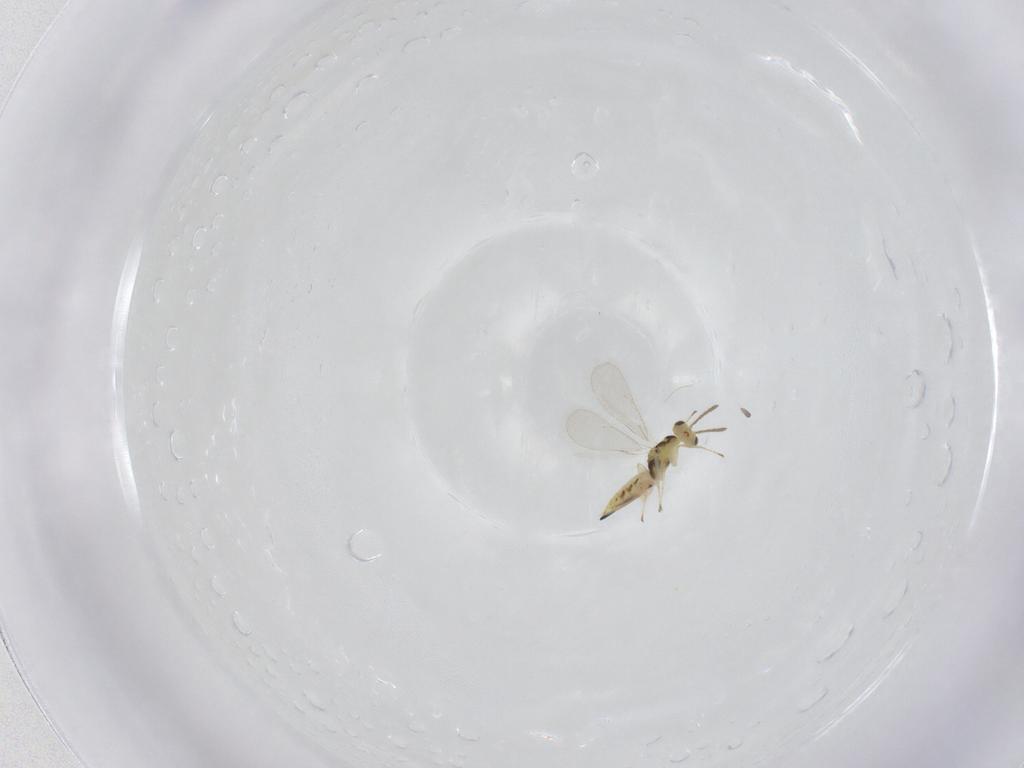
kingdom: Animalia
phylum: Arthropoda
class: Insecta
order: Hymenoptera
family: Eulophidae
